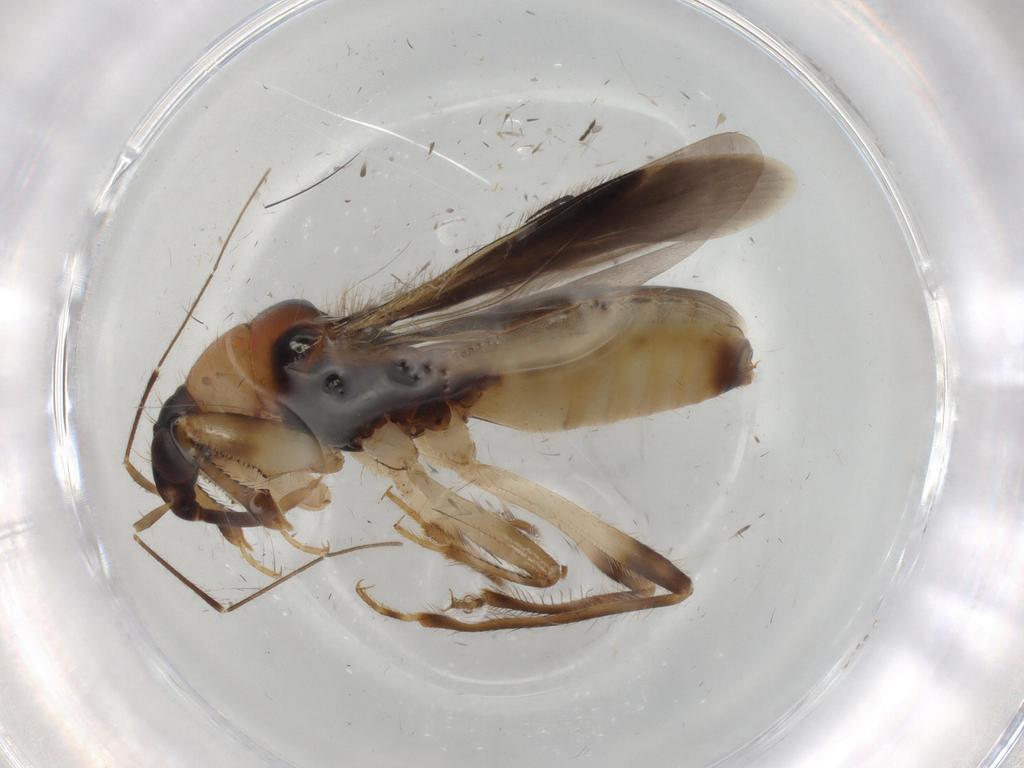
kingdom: Animalia
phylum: Arthropoda
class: Insecta
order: Hemiptera
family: Nabidae
